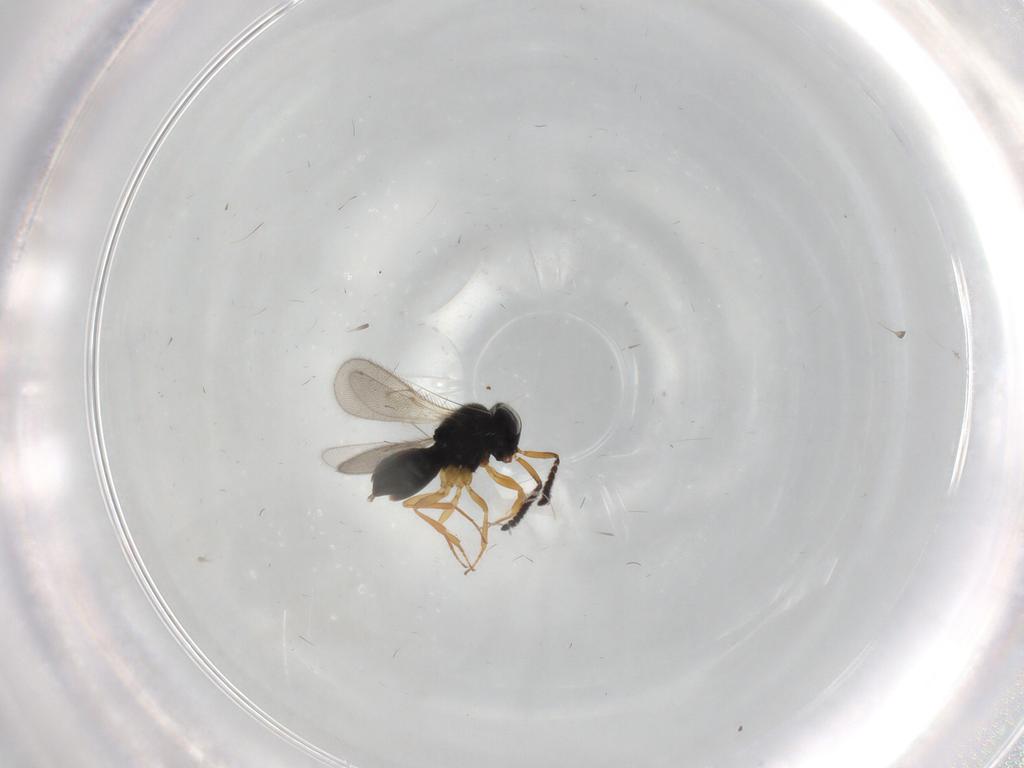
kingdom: Animalia
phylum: Arthropoda
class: Insecta
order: Hymenoptera
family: Scelionidae
